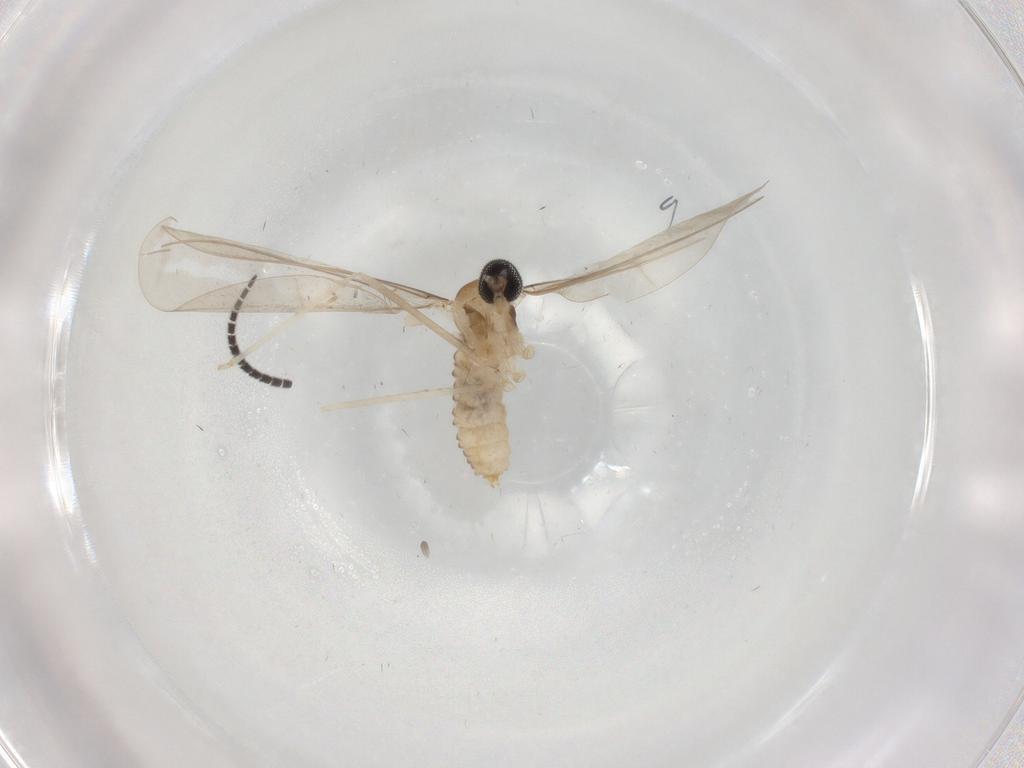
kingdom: Animalia
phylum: Arthropoda
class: Insecta
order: Diptera
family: Cecidomyiidae
